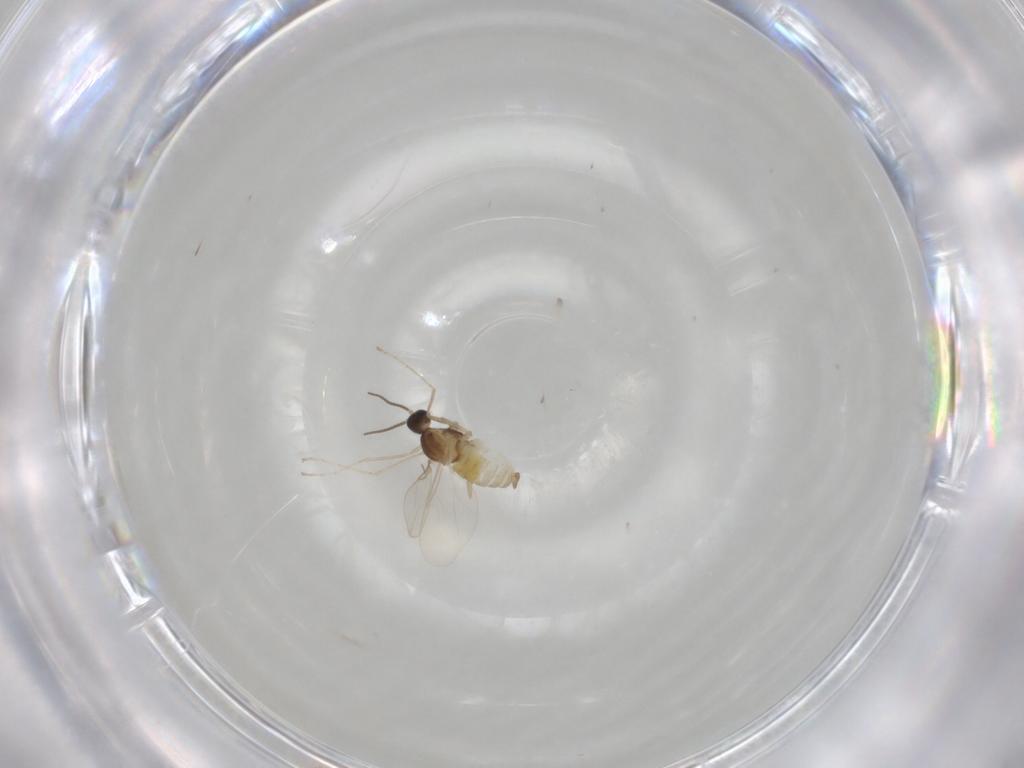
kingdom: Animalia
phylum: Arthropoda
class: Insecta
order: Diptera
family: Cecidomyiidae
